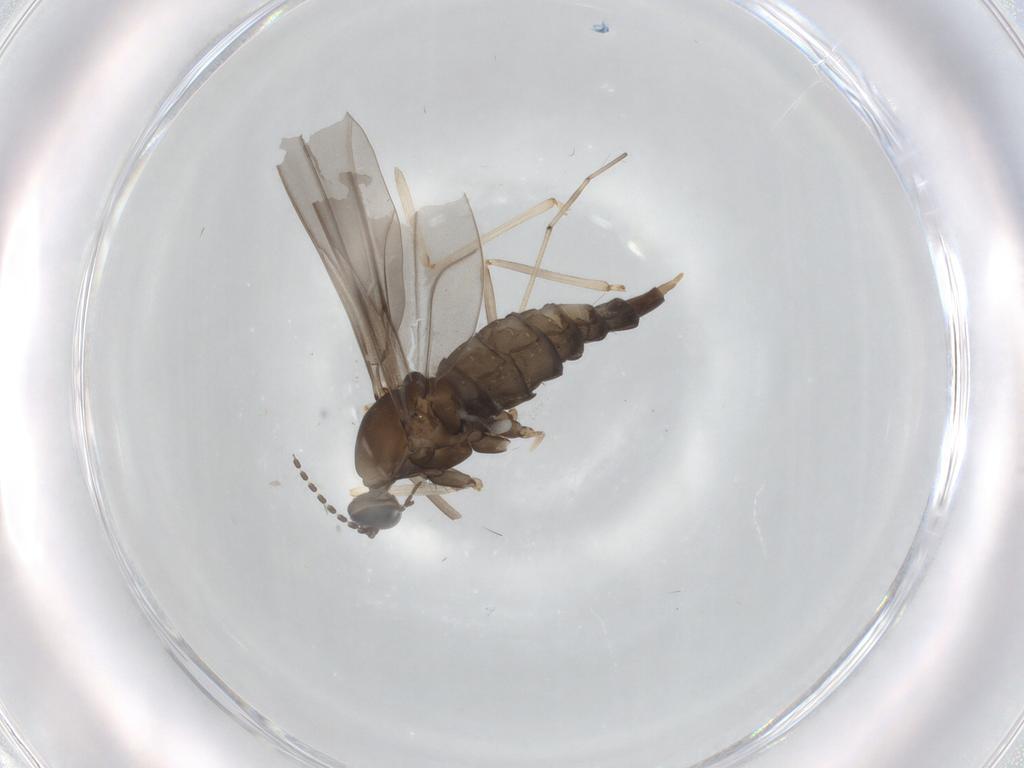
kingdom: Animalia
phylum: Arthropoda
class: Insecta
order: Diptera
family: Cecidomyiidae
